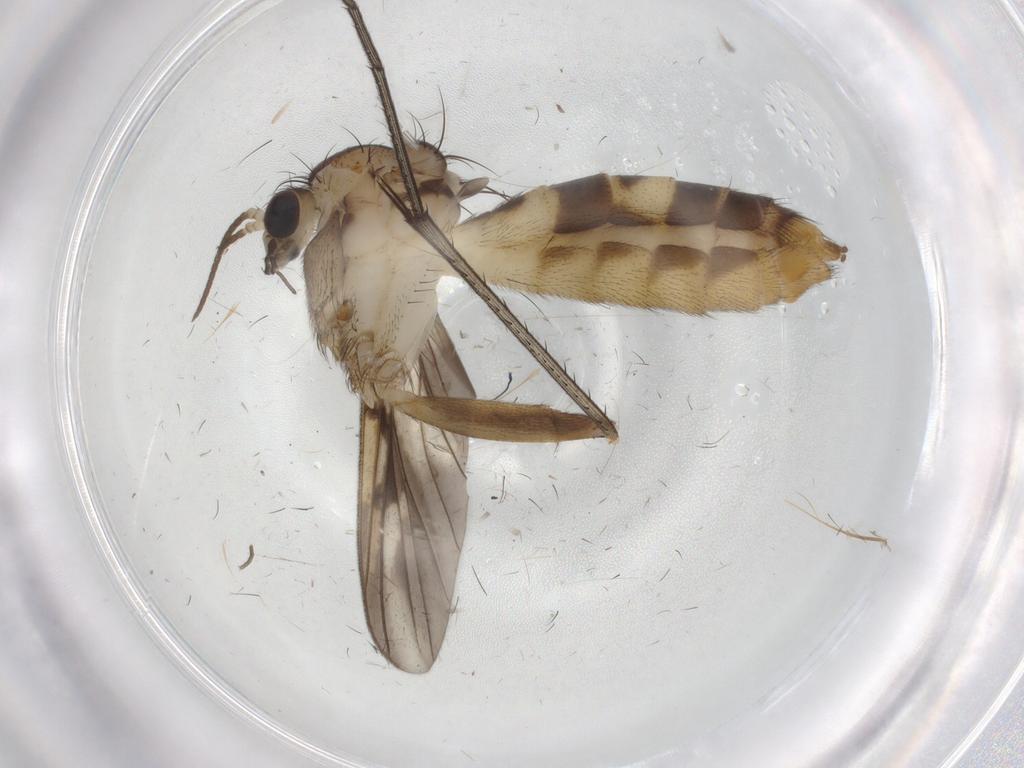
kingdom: Animalia
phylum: Arthropoda
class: Insecta
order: Diptera
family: Mycetophilidae
